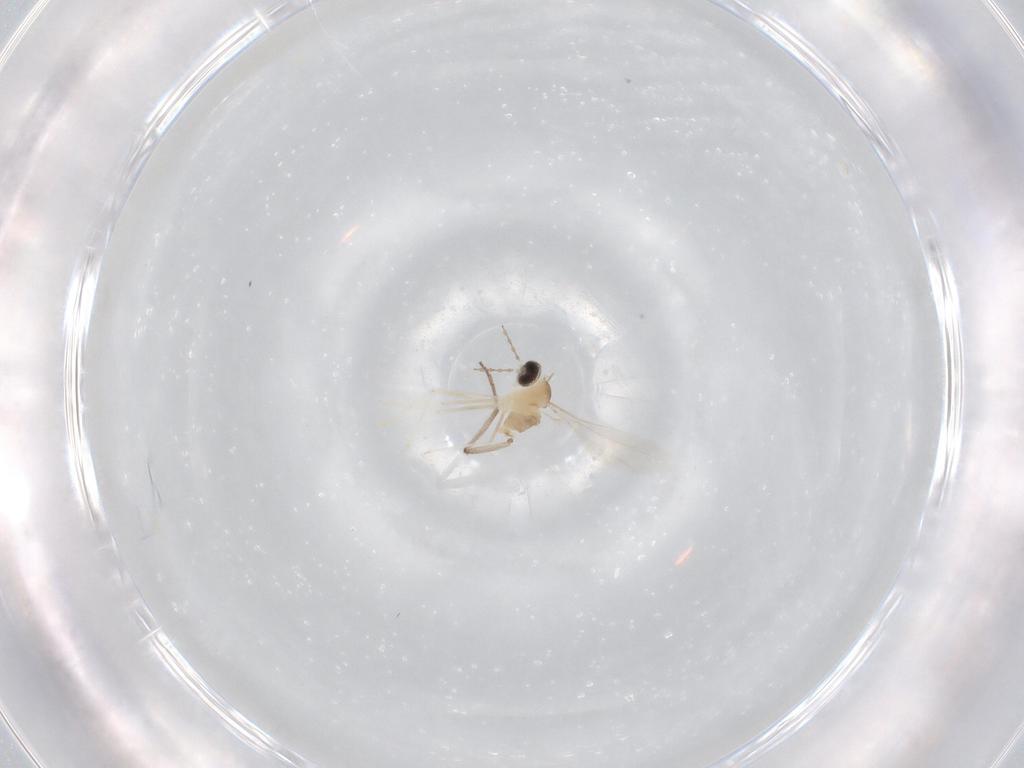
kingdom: Animalia
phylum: Arthropoda
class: Insecta
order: Diptera
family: Cecidomyiidae
